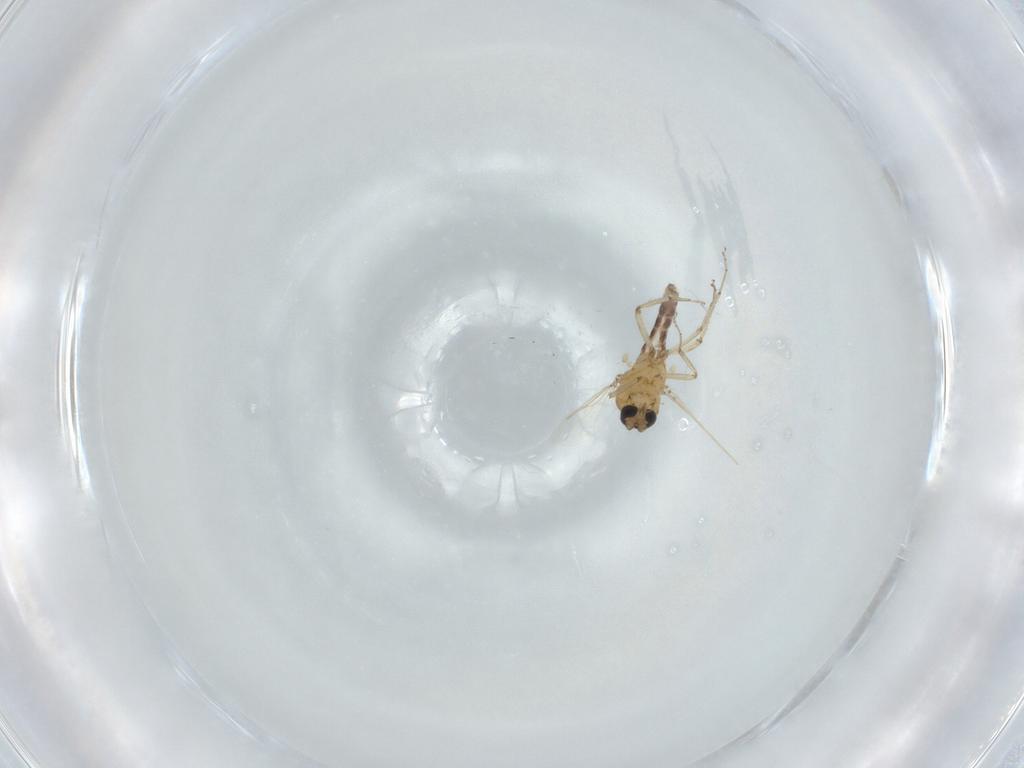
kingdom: Animalia
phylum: Arthropoda
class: Insecta
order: Diptera
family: Ceratopogonidae
